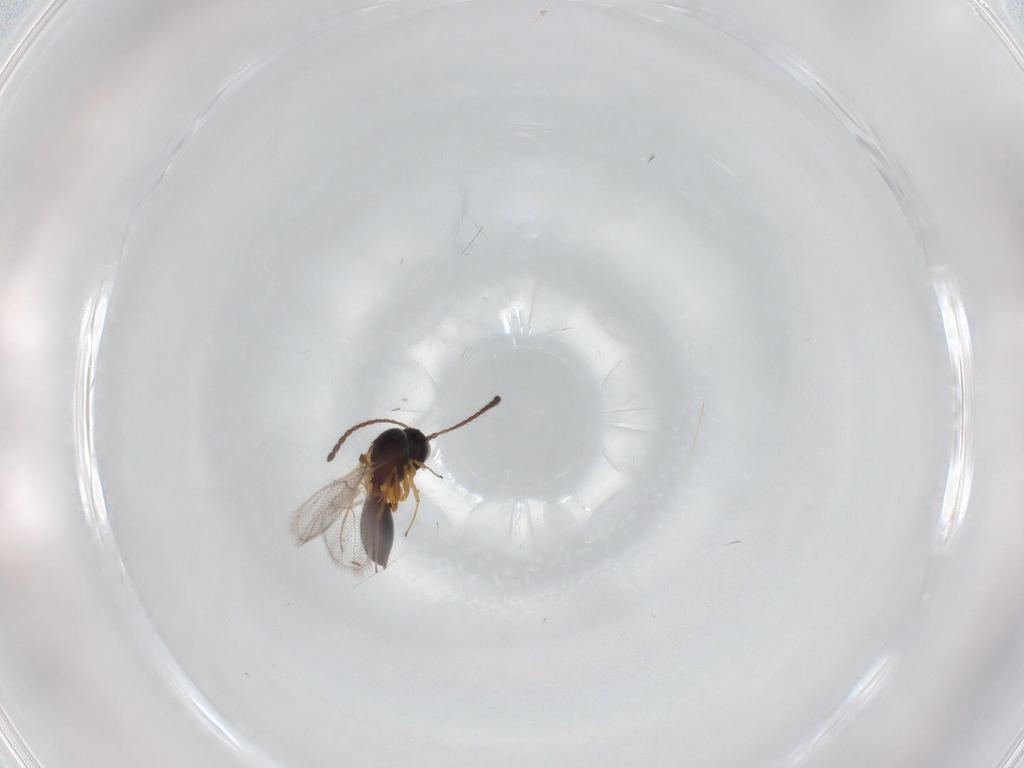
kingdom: Animalia
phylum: Arthropoda
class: Insecta
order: Hymenoptera
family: Figitidae
